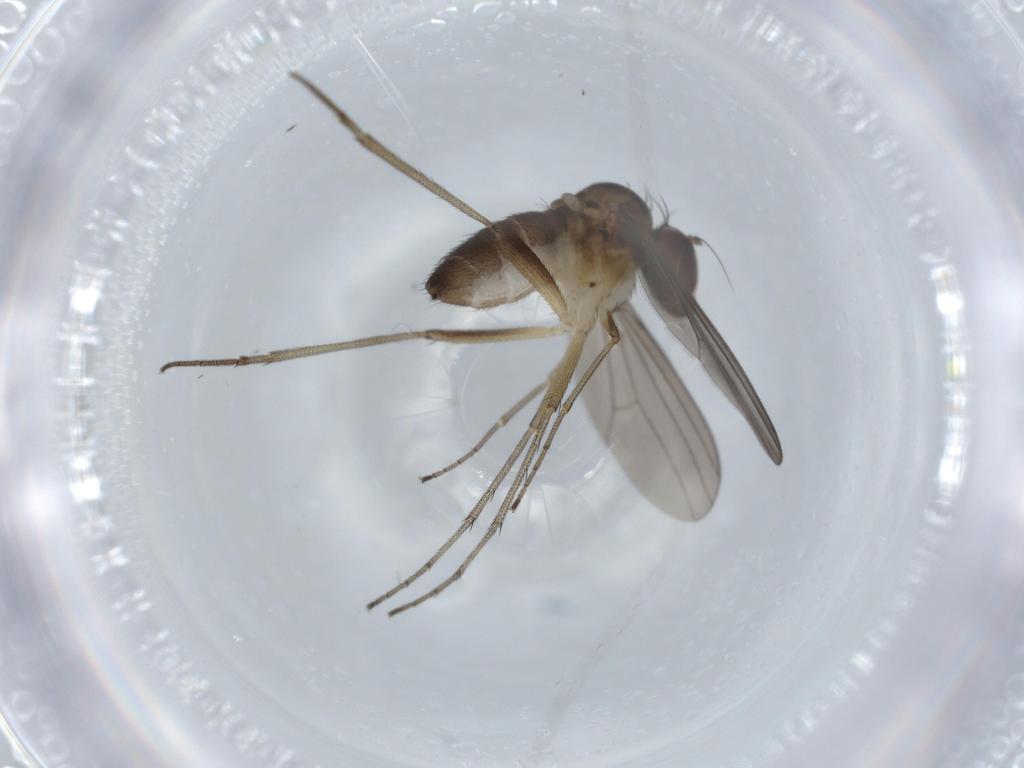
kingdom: Animalia
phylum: Arthropoda
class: Insecta
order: Diptera
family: Dolichopodidae
